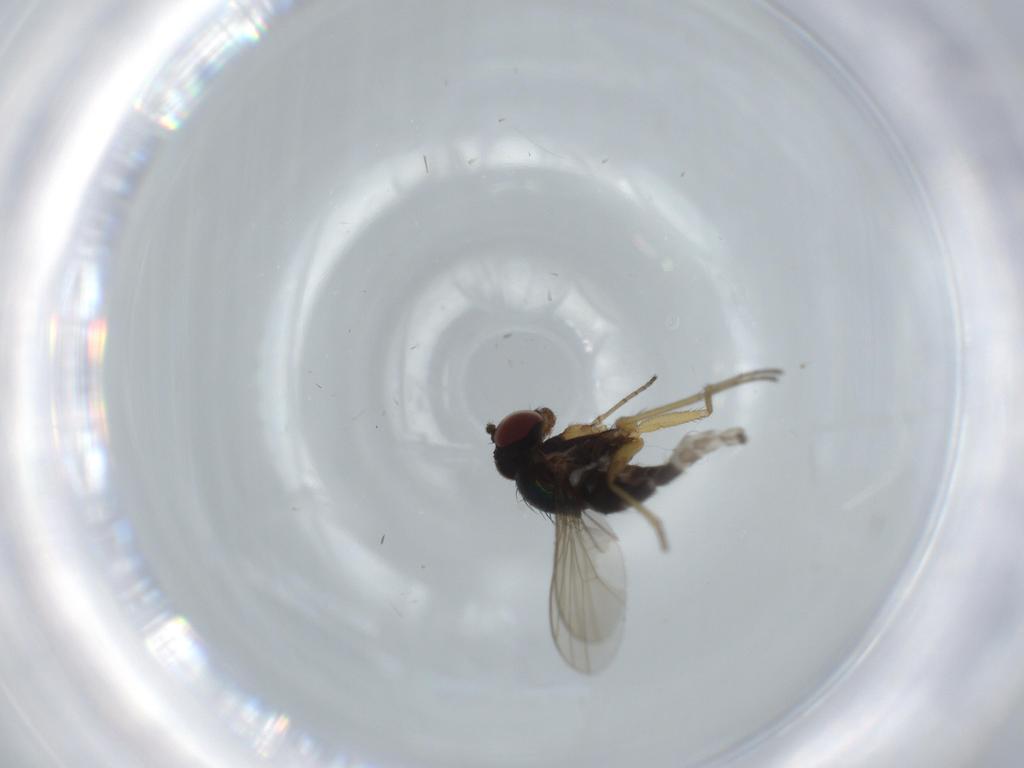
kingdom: Animalia
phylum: Arthropoda
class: Insecta
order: Diptera
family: Dolichopodidae
